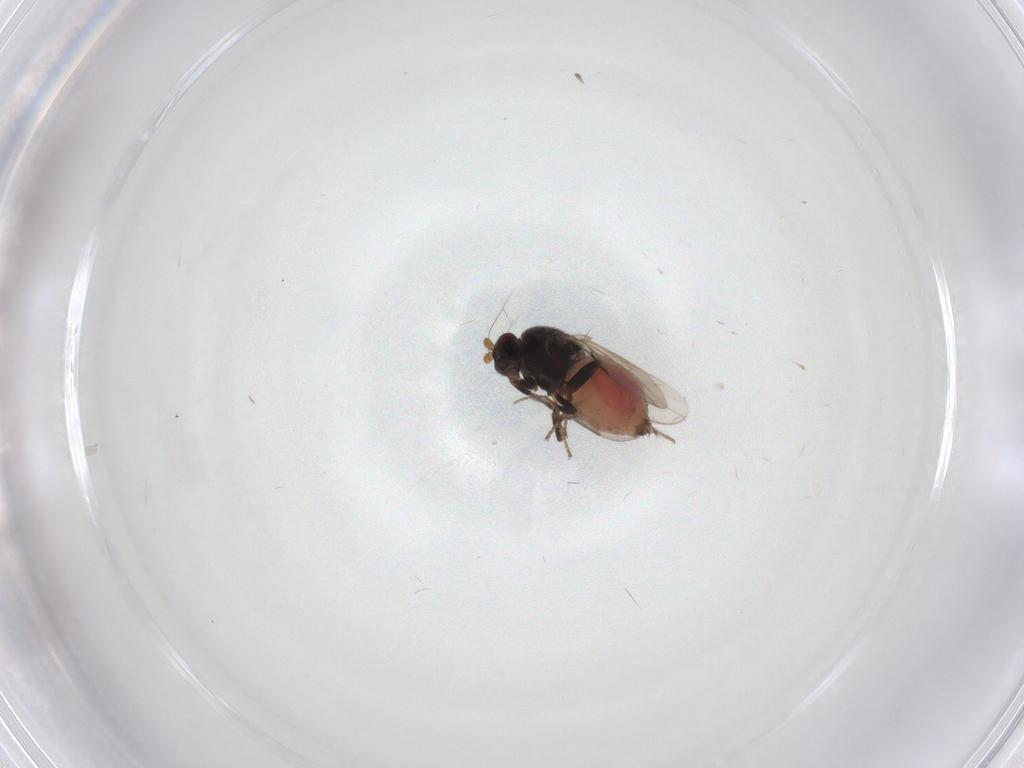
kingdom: Animalia
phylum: Arthropoda
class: Insecta
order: Diptera
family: Sphaeroceridae
